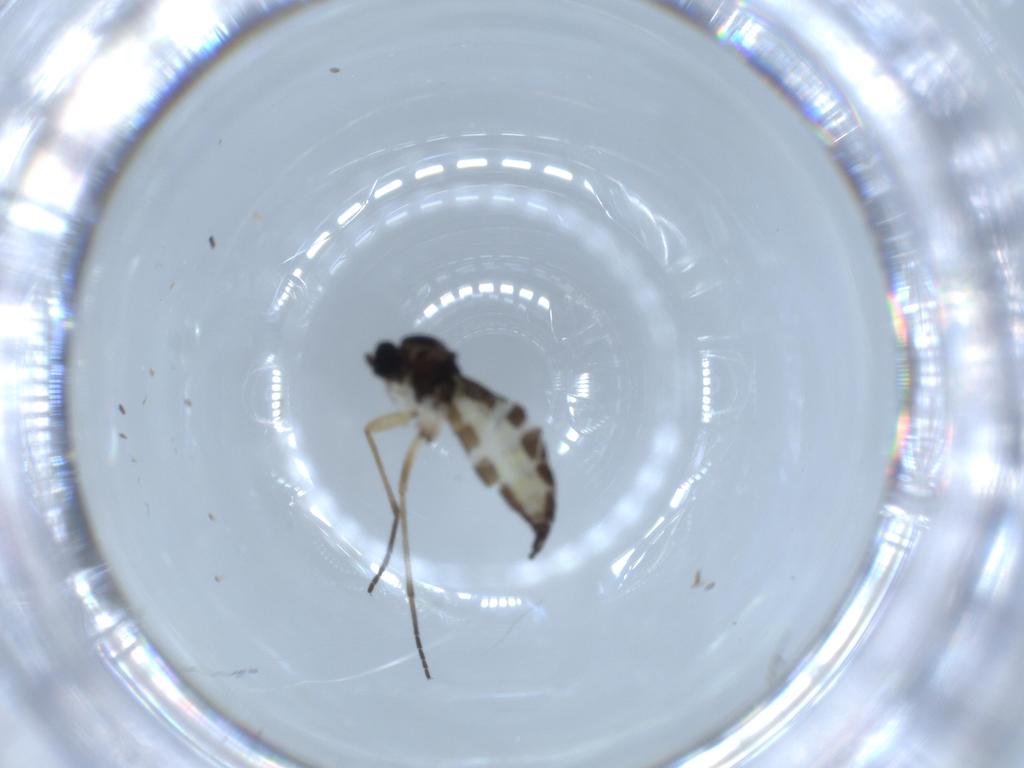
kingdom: Animalia
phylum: Arthropoda
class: Insecta
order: Diptera
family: Sciaridae
